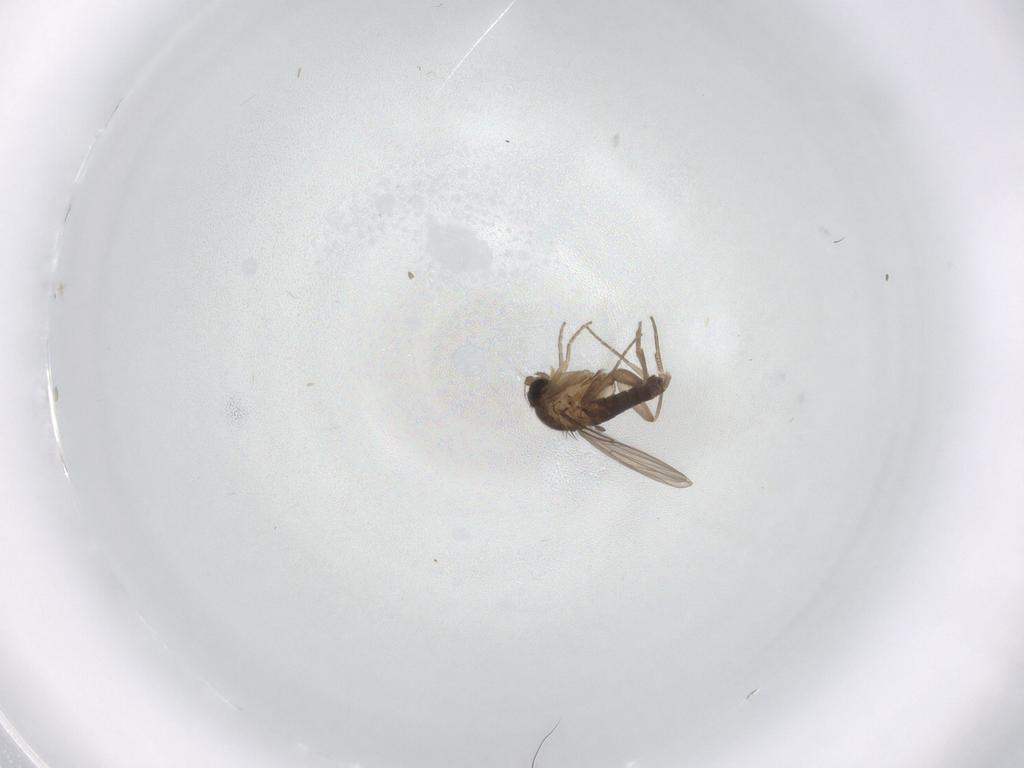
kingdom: Animalia
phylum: Arthropoda
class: Insecta
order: Diptera
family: Phoridae
